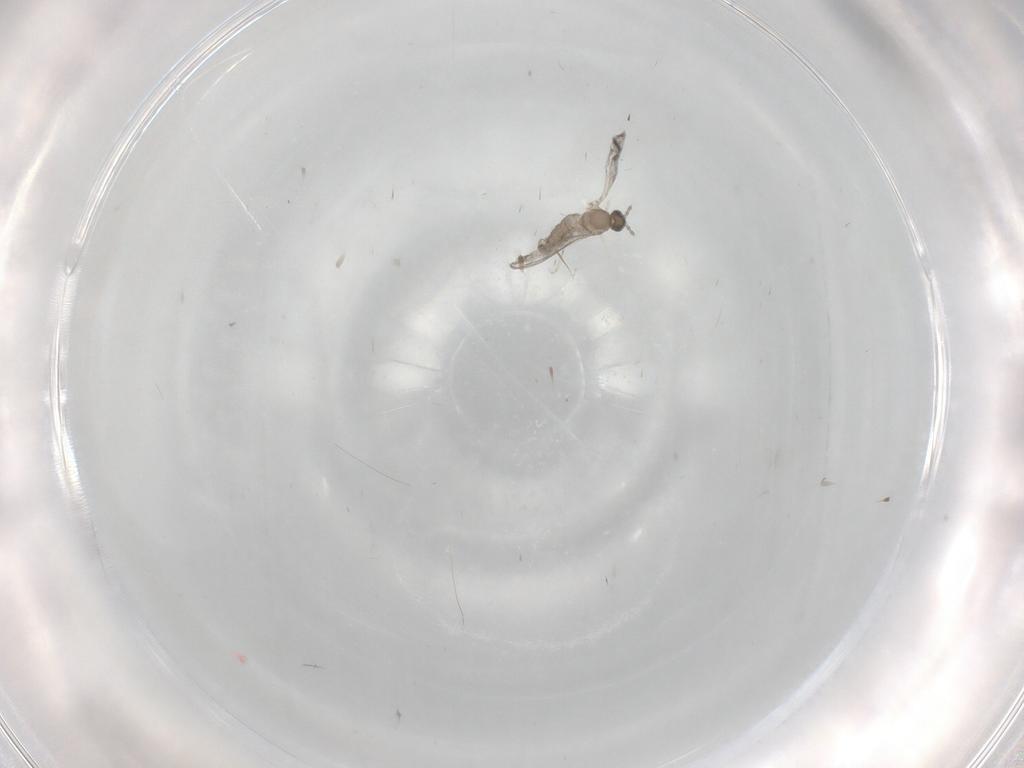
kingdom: Animalia
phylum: Arthropoda
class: Insecta
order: Diptera
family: Cecidomyiidae
